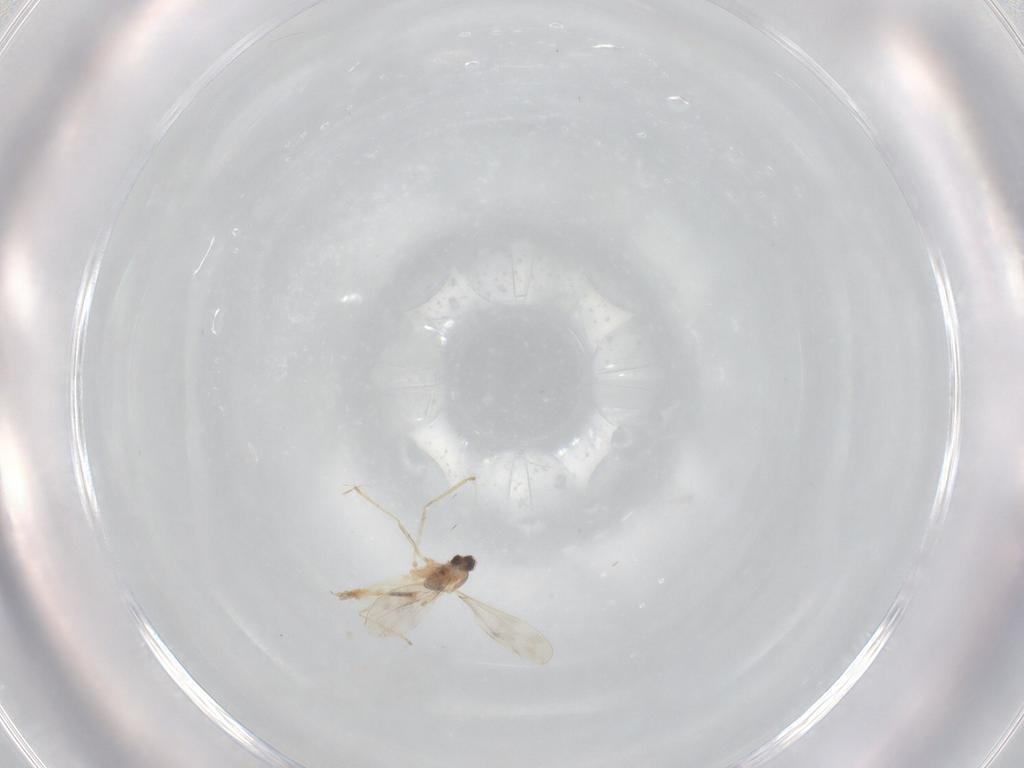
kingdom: Animalia
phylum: Arthropoda
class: Insecta
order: Diptera
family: Cecidomyiidae
